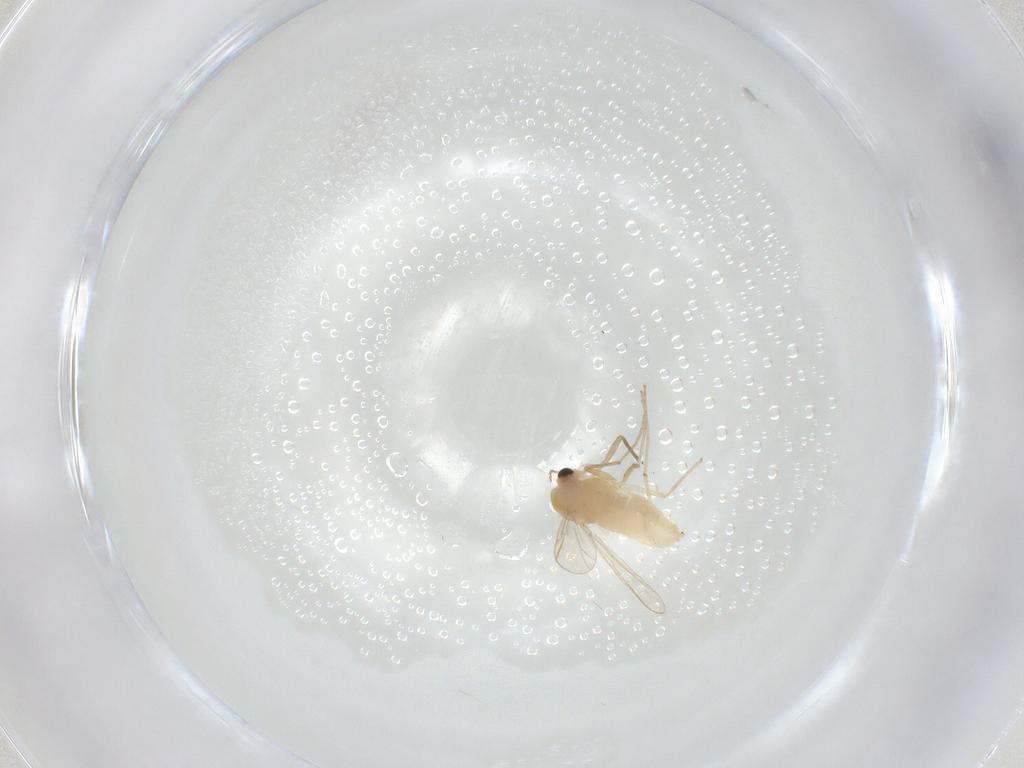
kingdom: Animalia
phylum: Arthropoda
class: Insecta
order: Diptera
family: Chironomidae
